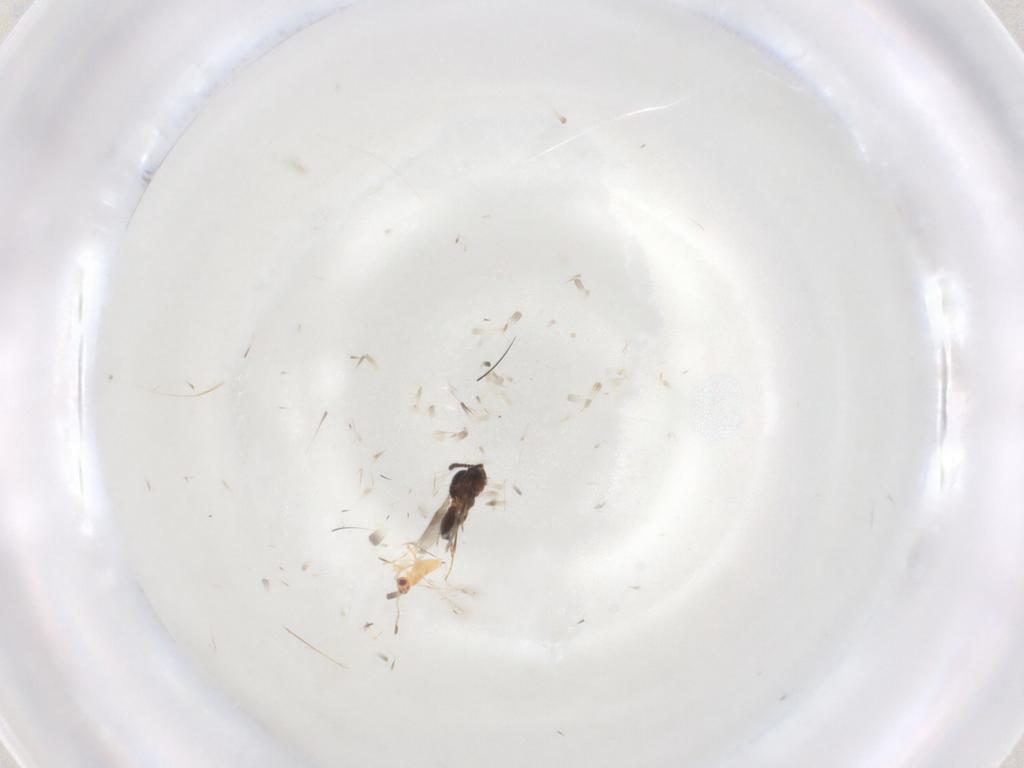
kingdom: Animalia
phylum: Arthropoda
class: Insecta
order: Hymenoptera
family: Scelionidae
